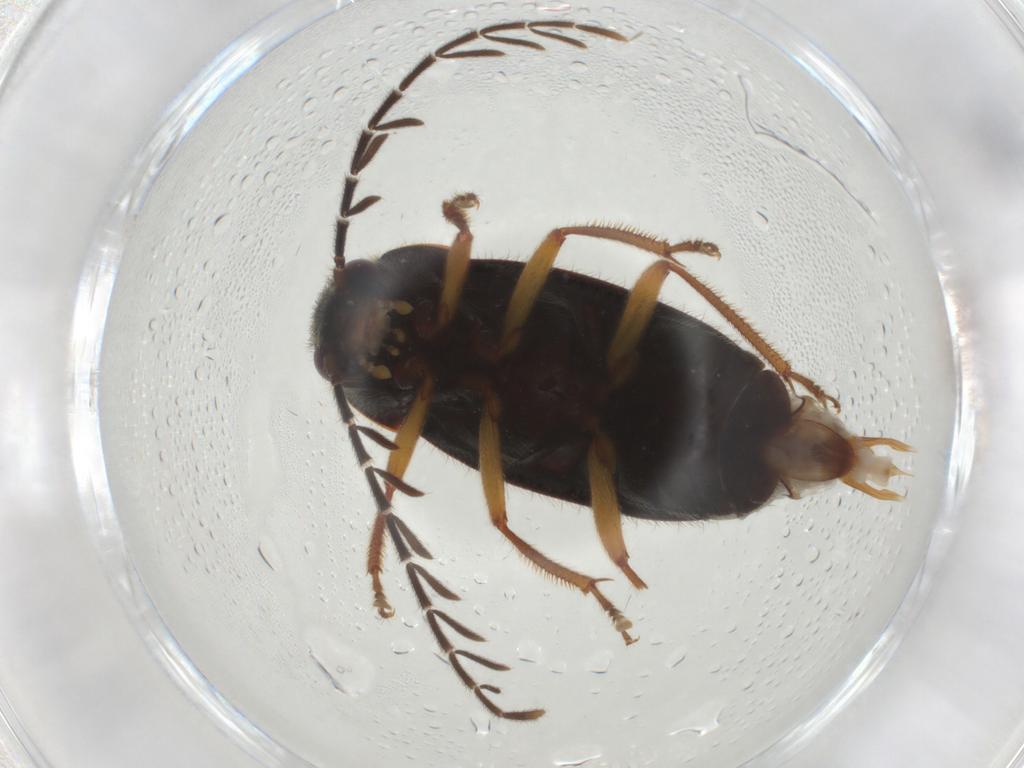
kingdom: Animalia
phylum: Arthropoda
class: Insecta
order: Coleoptera
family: Ptilodactylidae
